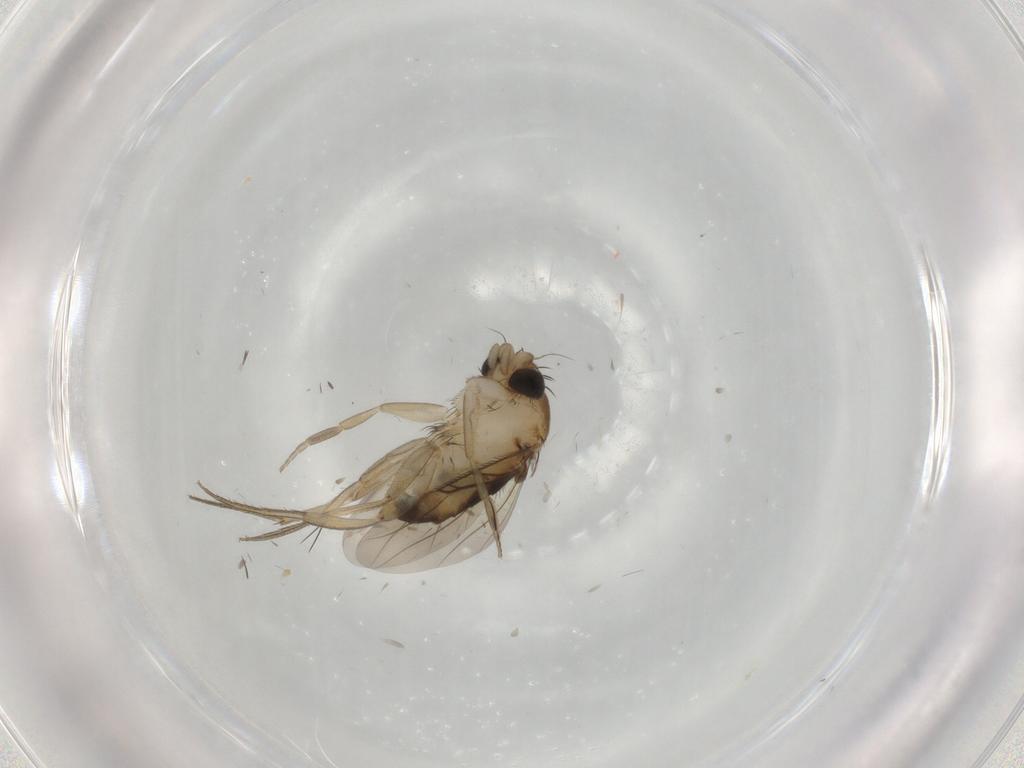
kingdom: Animalia
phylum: Arthropoda
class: Insecta
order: Diptera
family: Phoridae
